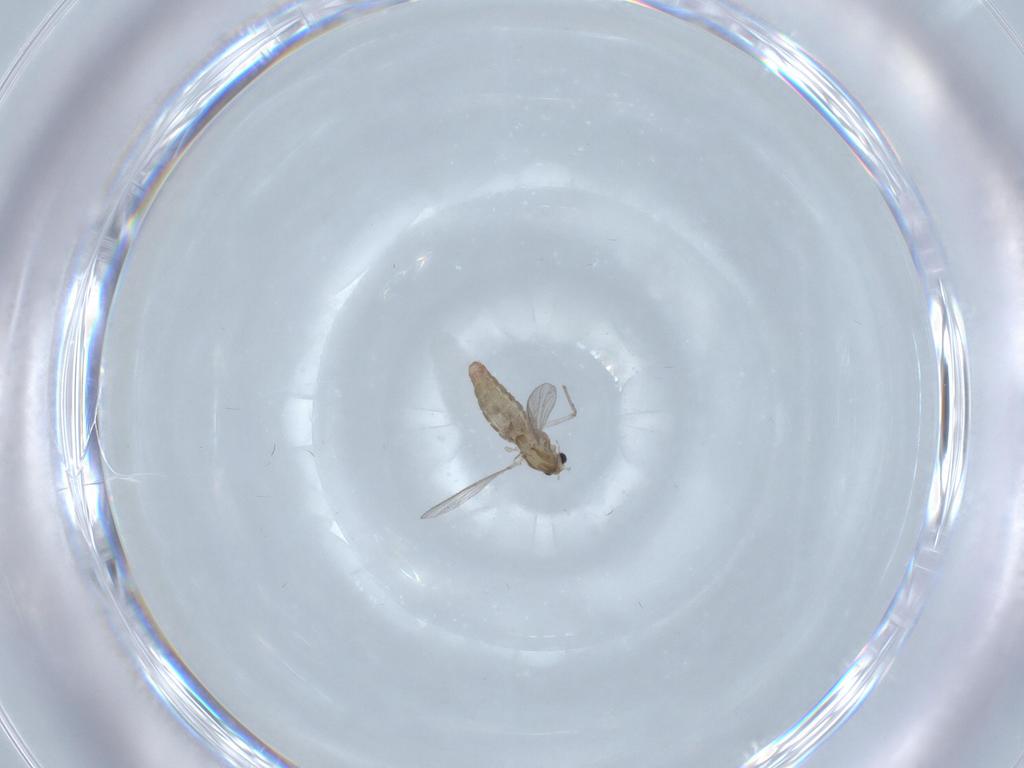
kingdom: Animalia
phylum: Arthropoda
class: Insecta
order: Diptera
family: Chironomidae
